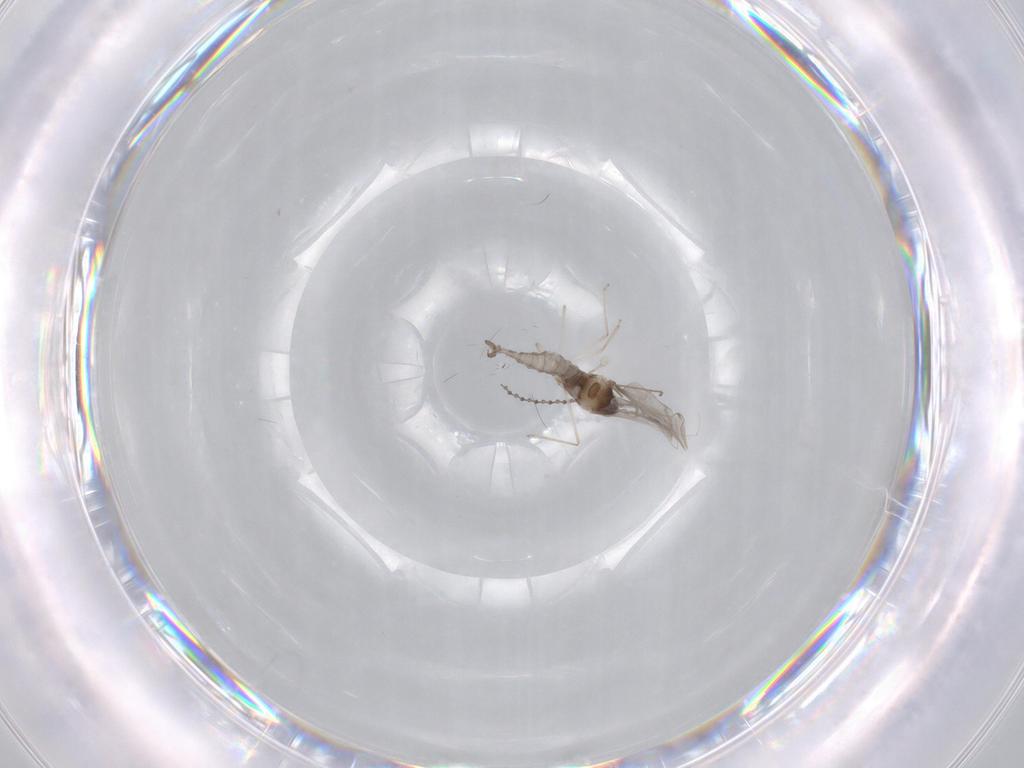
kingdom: Animalia
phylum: Arthropoda
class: Insecta
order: Diptera
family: Cecidomyiidae
